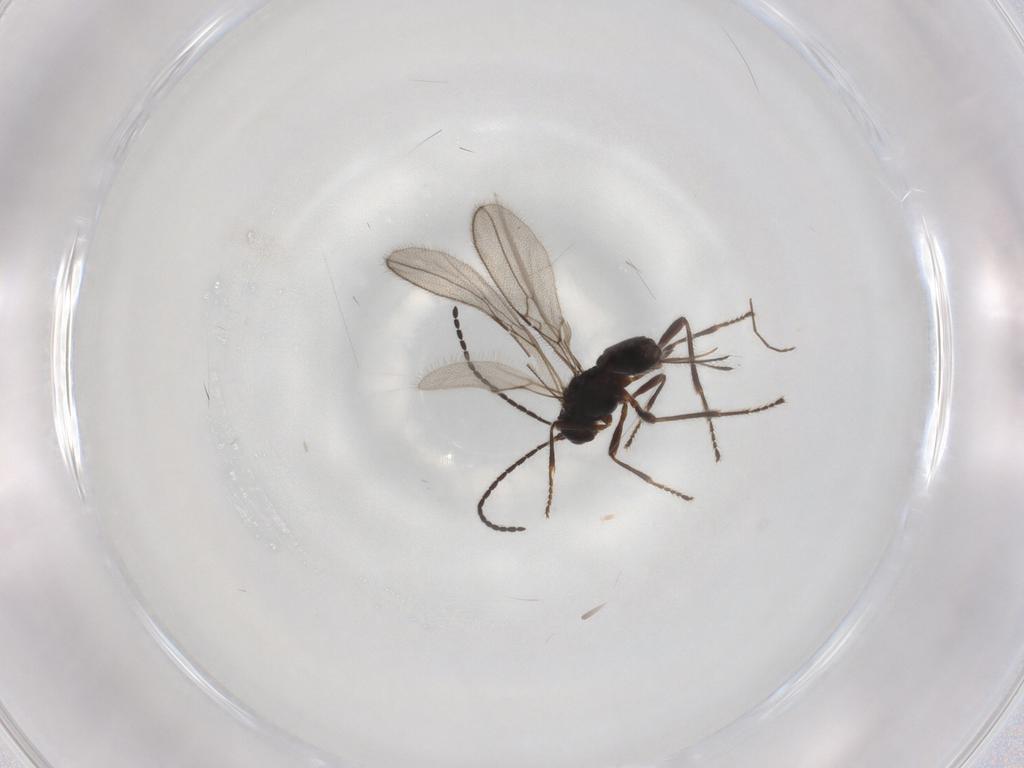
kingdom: Animalia
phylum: Arthropoda
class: Insecta
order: Hymenoptera
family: Braconidae
